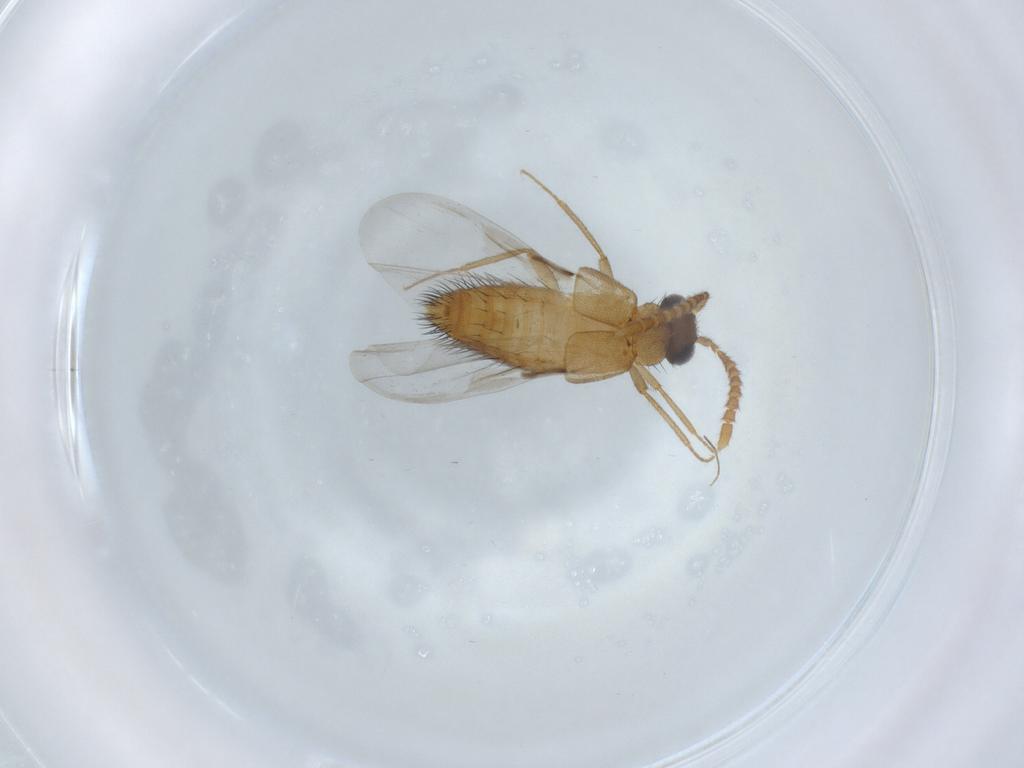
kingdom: Animalia
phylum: Arthropoda
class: Insecta
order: Coleoptera
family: Staphylinidae
